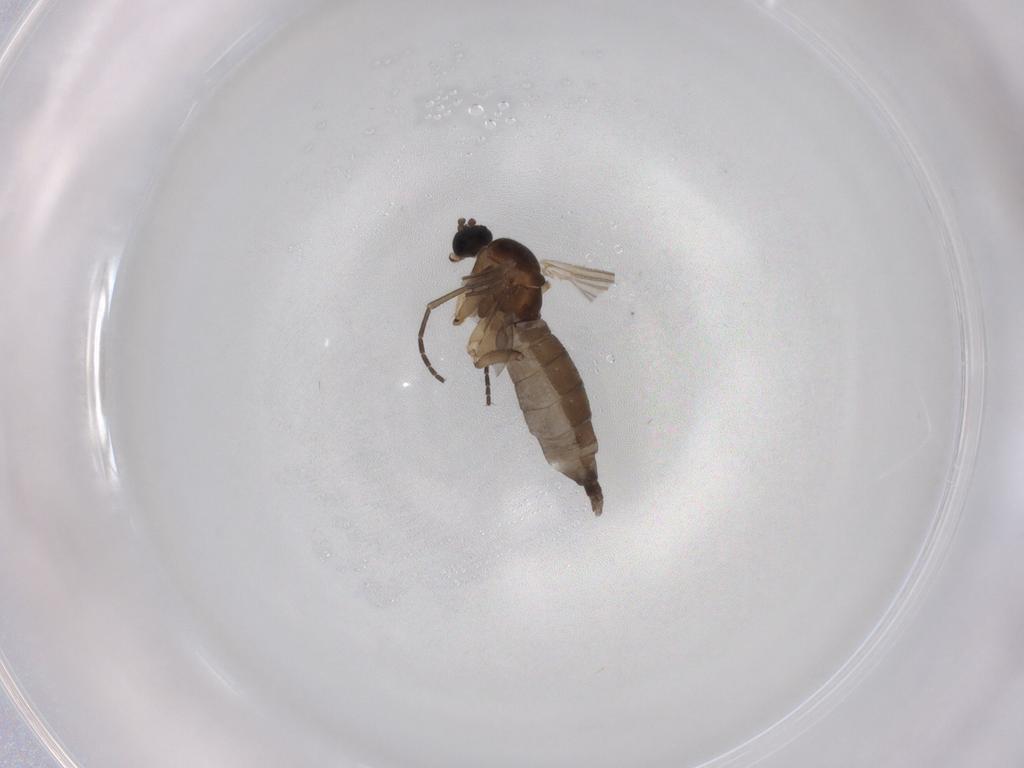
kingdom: Animalia
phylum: Arthropoda
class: Insecta
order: Diptera
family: Sciaridae
